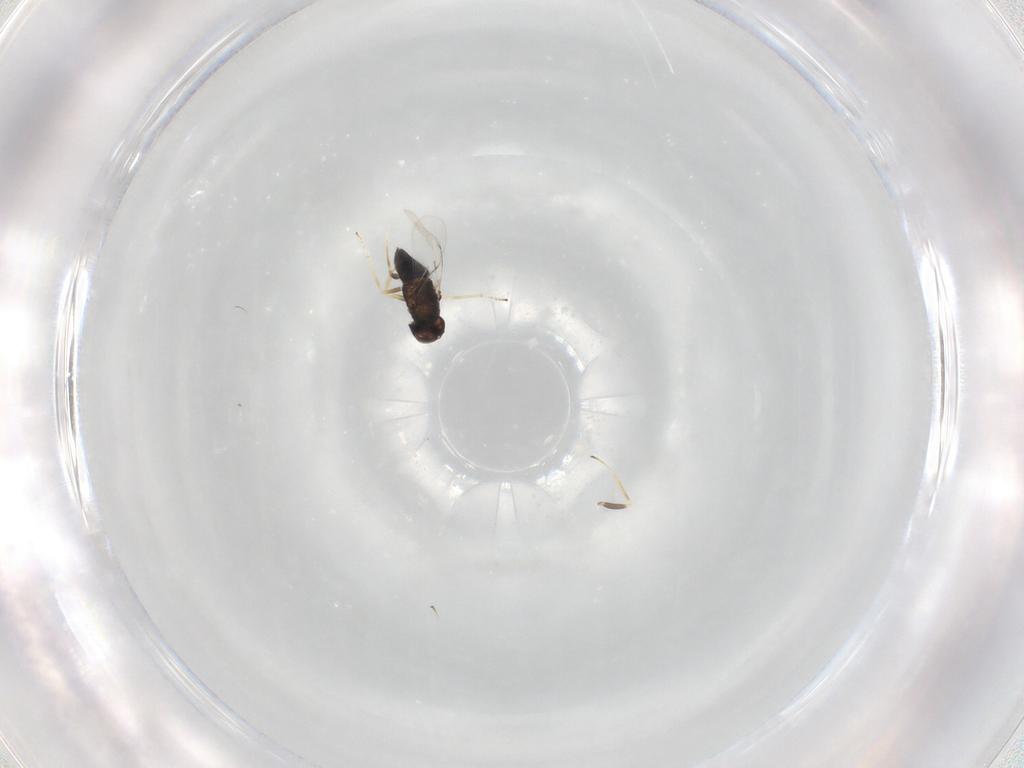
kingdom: Animalia
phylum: Arthropoda
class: Insecta
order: Hymenoptera
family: Encyrtidae
